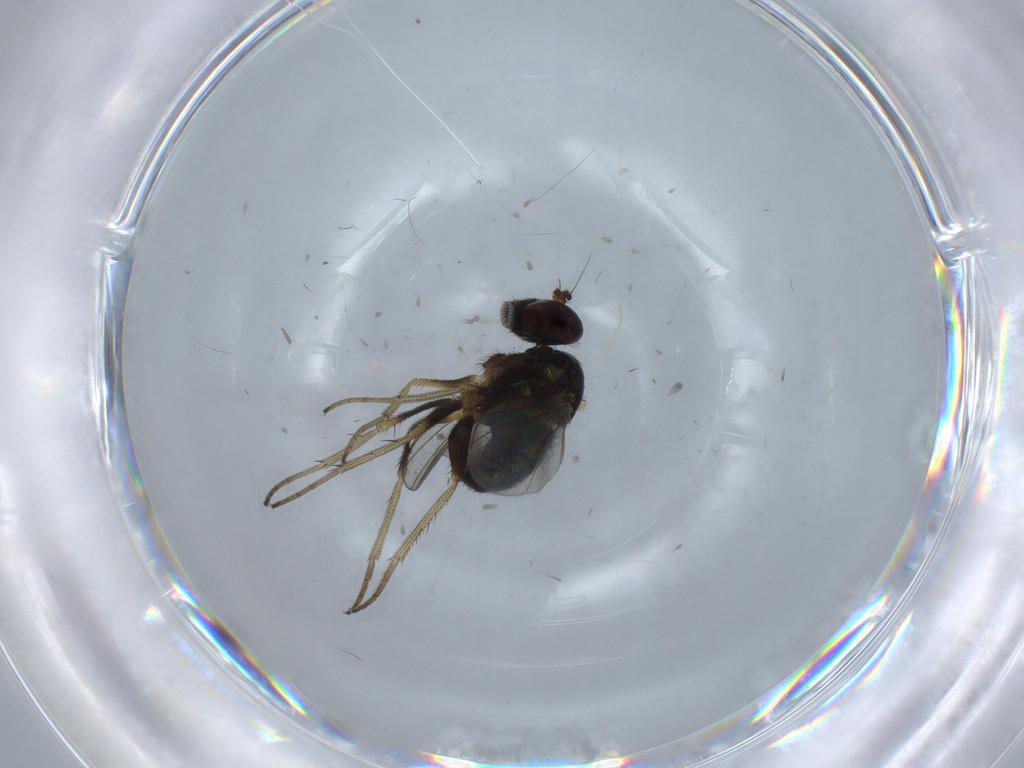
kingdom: Animalia
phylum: Arthropoda
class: Insecta
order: Diptera
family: Dolichopodidae
